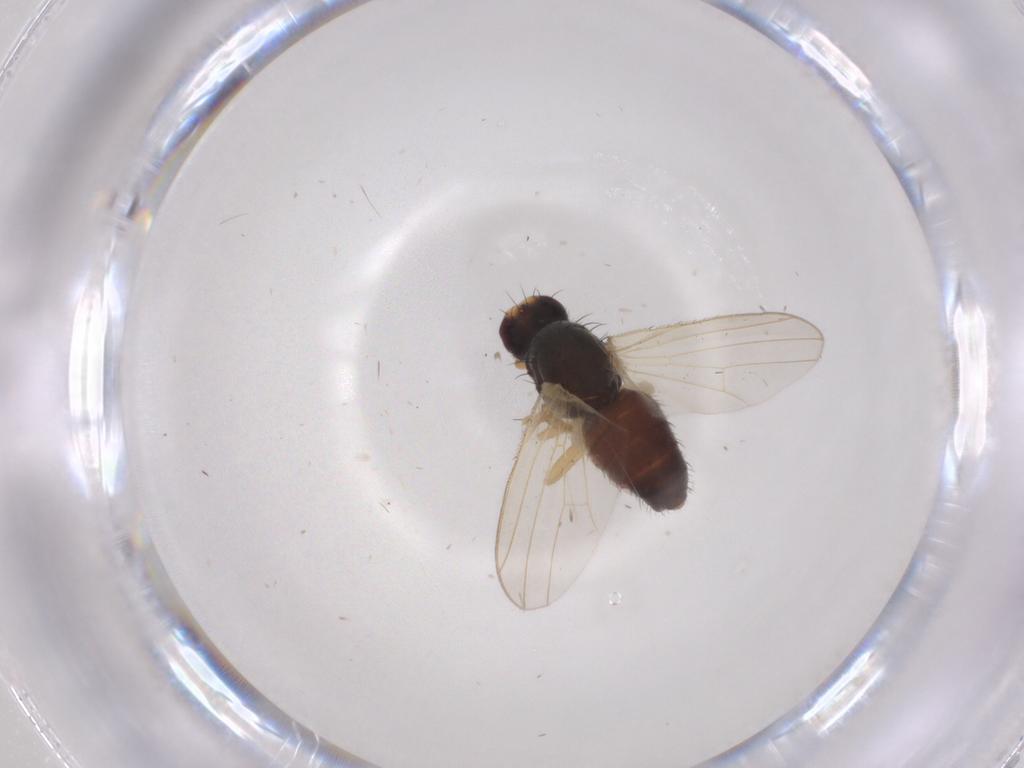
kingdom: Animalia
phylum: Arthropoda
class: Insecta
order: Diptera
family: Heleomyzidae
